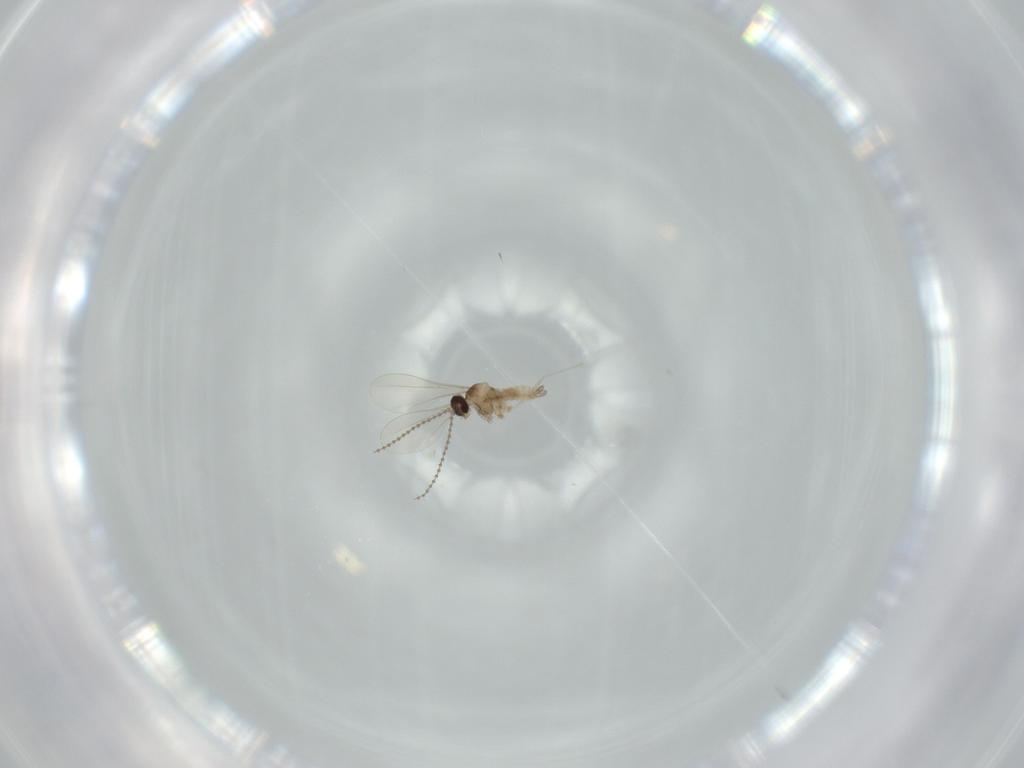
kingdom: Animalia
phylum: Arthropoda
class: Insecta
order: Diptera
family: Cecidomyiidae
